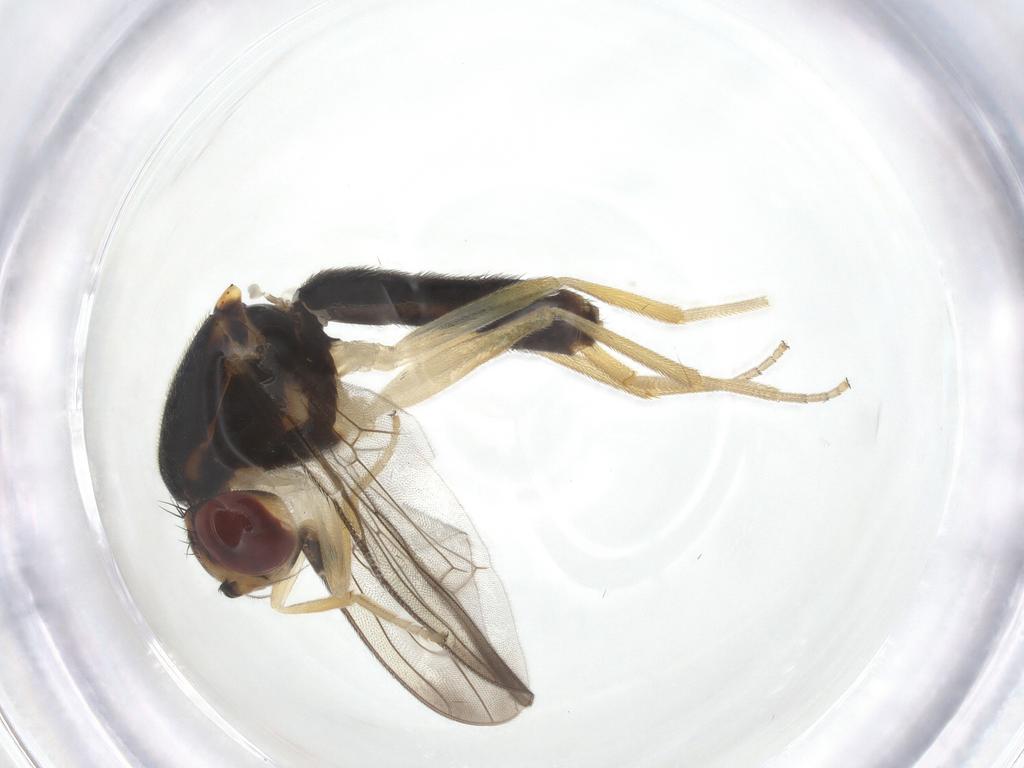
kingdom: Animalia
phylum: Arthropoda
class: Insecta
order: Diptera
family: Psilidae
